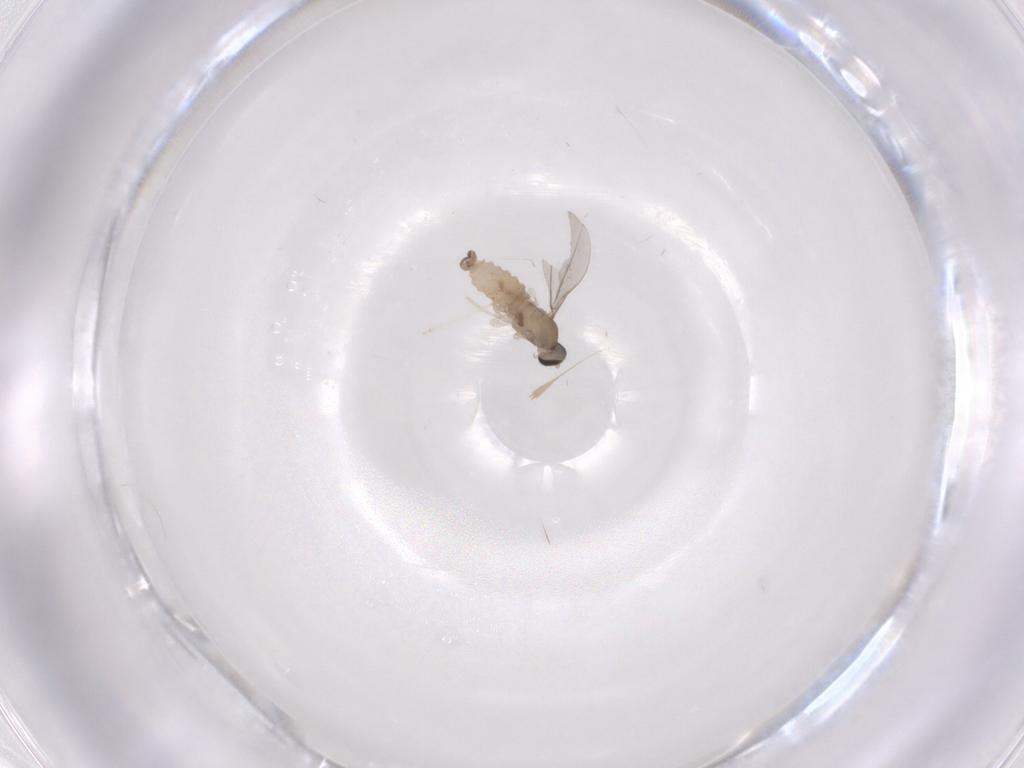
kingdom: Animalia
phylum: Arthropoda
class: Insecta
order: Diptera
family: Cecidomyiidae
